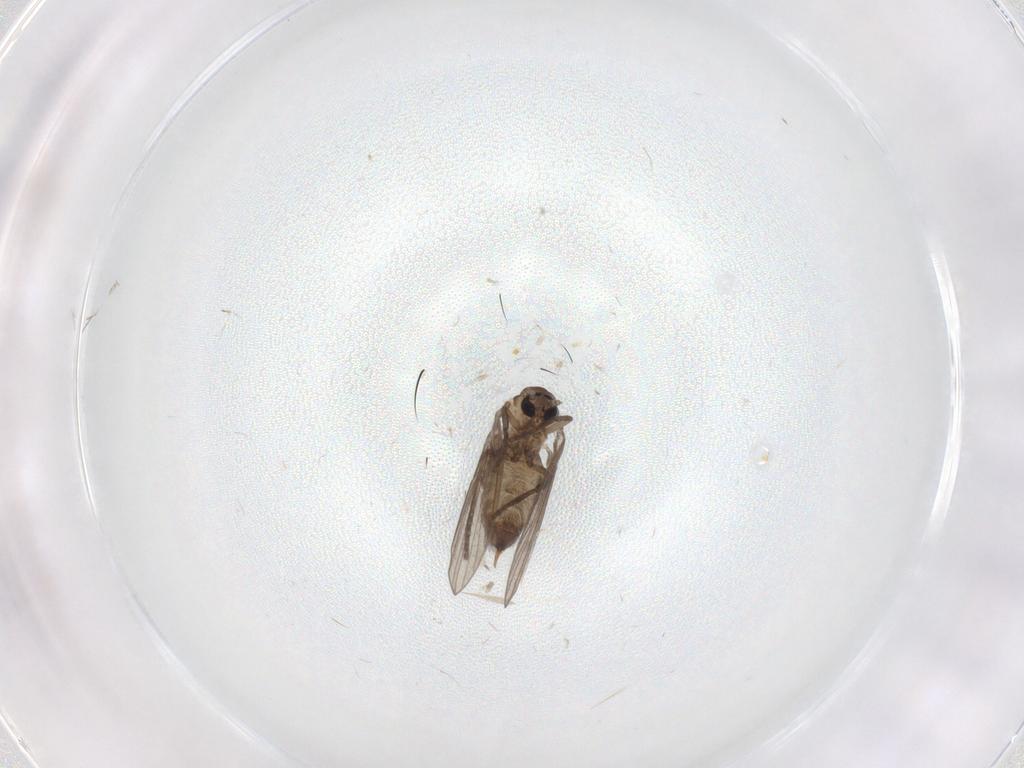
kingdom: Animalia
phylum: Arthropoda
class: Insecta
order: Diptera
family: Psychodidae
